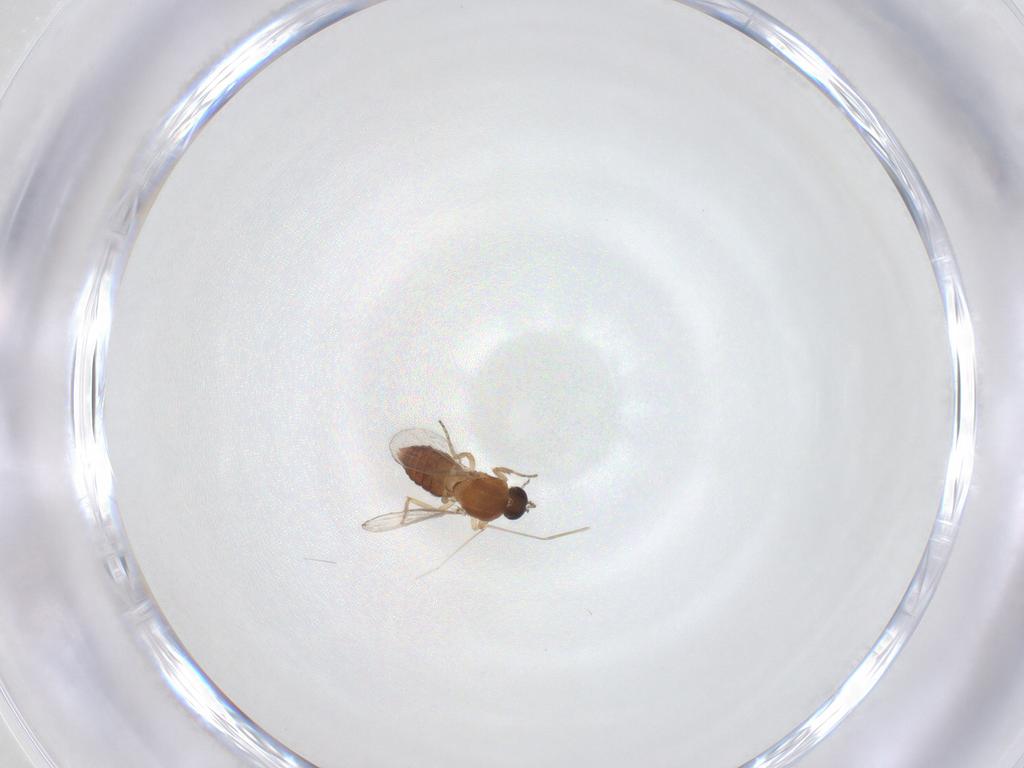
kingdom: Animalia
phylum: Arthropoda
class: Insecta
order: Diptera
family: Ceratopogonidae
